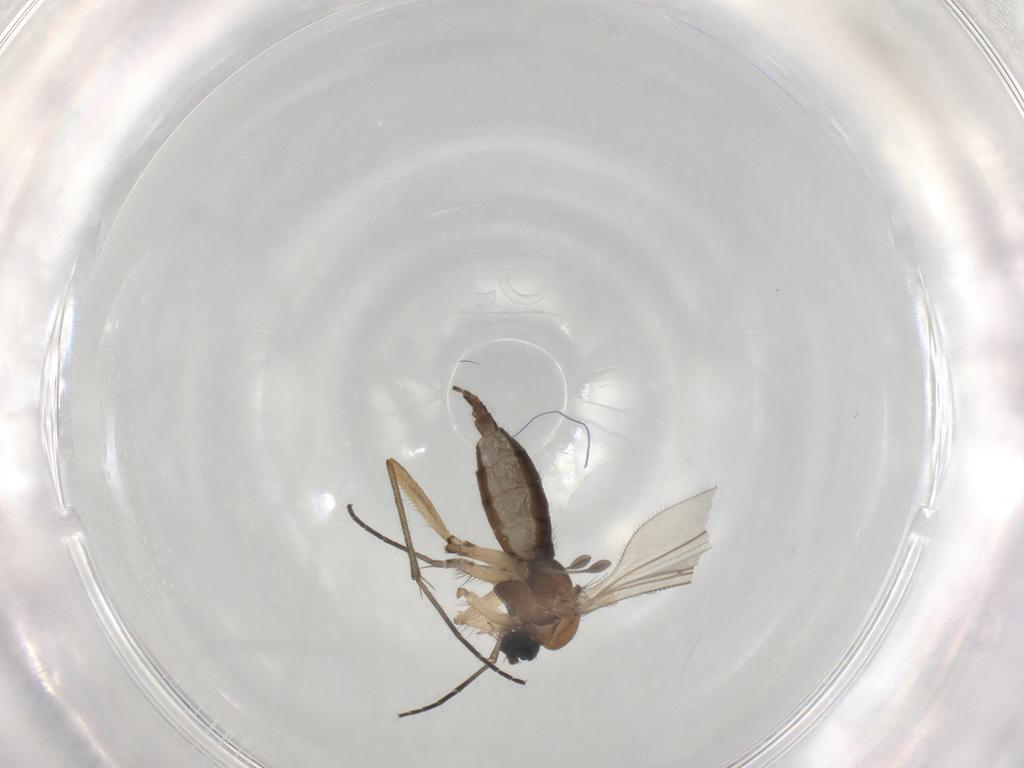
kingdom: Animalia
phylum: Arthropoda
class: Insecta
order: Diptera
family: Sciaridae
